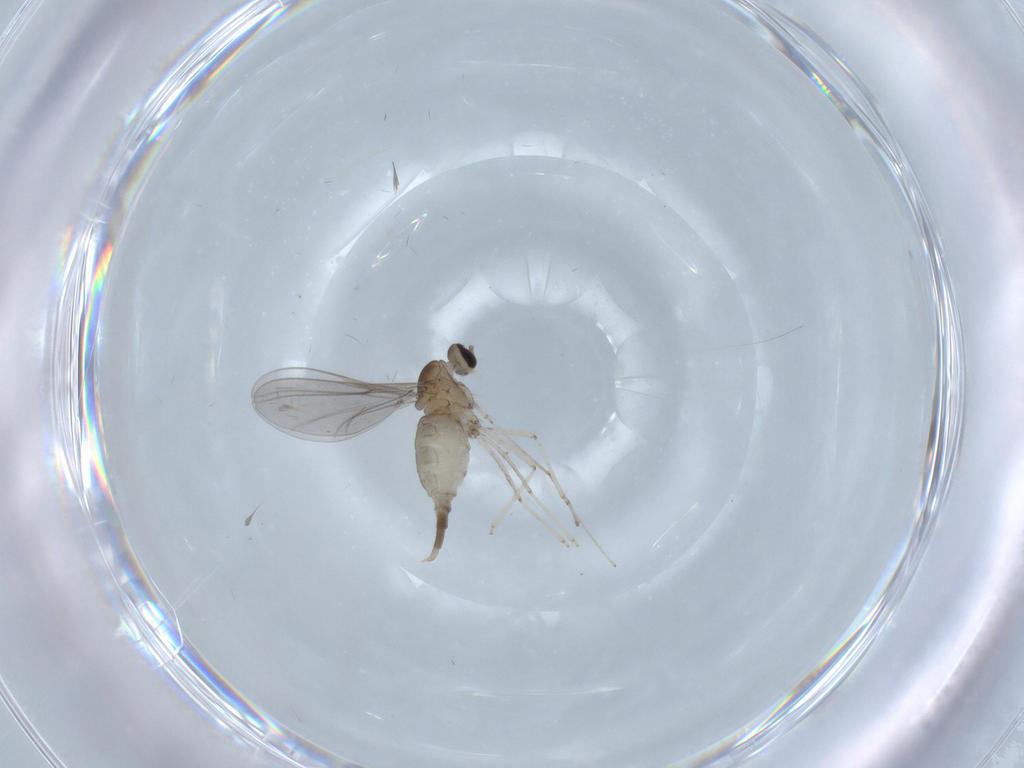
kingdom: Animalia
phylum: Arthropoda
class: Insecta
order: Diptera
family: Cecidomyiidae
